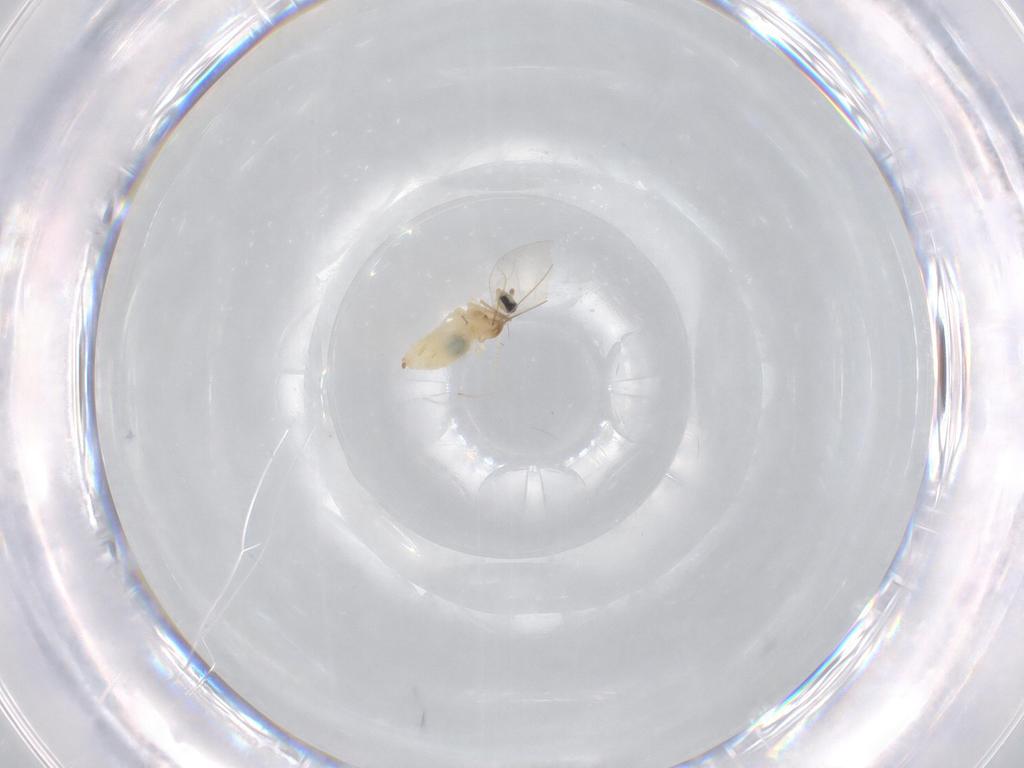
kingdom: Animalia
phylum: Arthropoda
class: Insecta
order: Diptera
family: Cecidomyiidae
